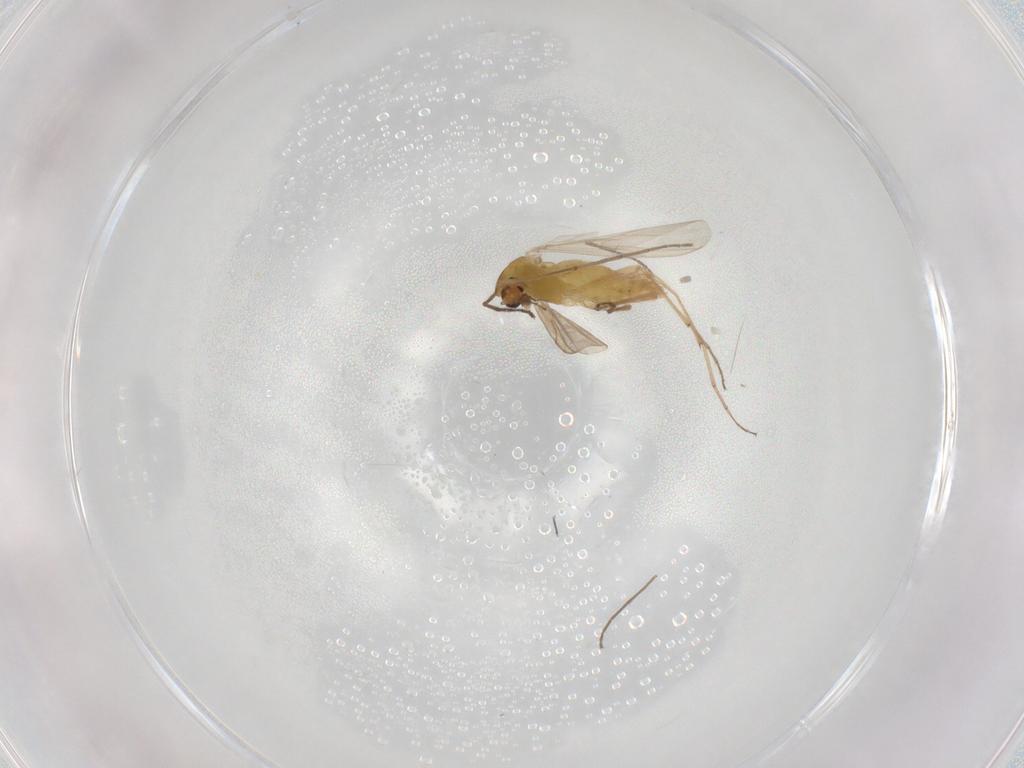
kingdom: Animalia
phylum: Arthropoda
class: Insecta
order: Diptera
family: Chironomidae
